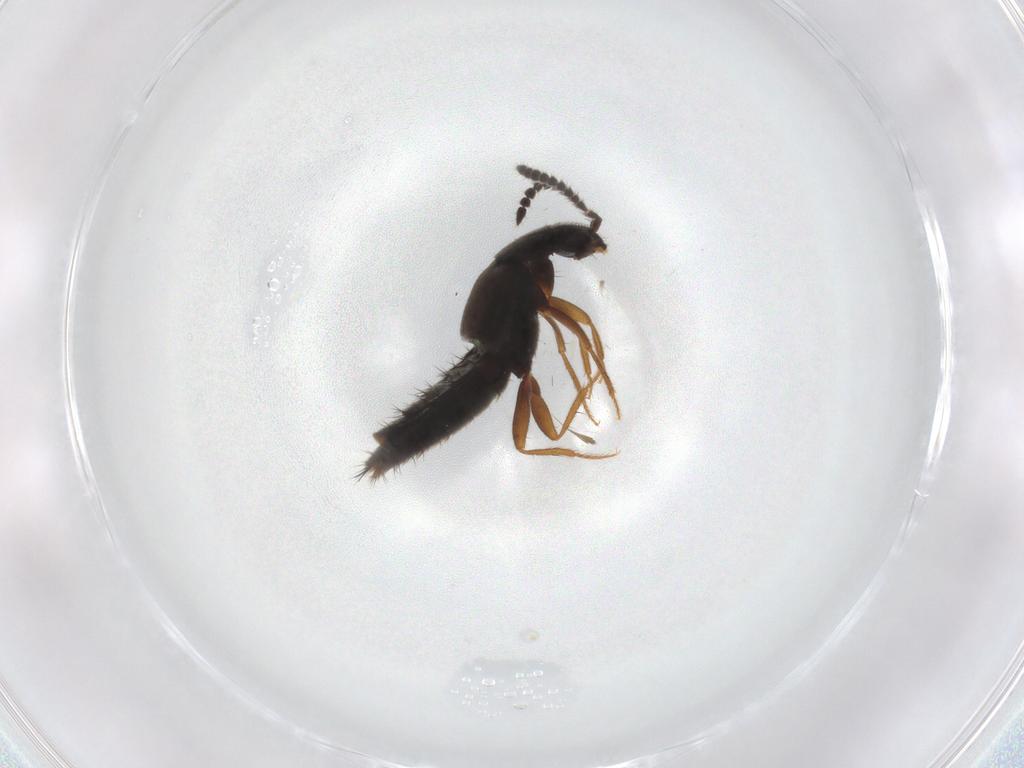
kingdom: Animalia
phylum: Arthropoda
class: Insecta
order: Coleoptera
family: Staphylinidae
